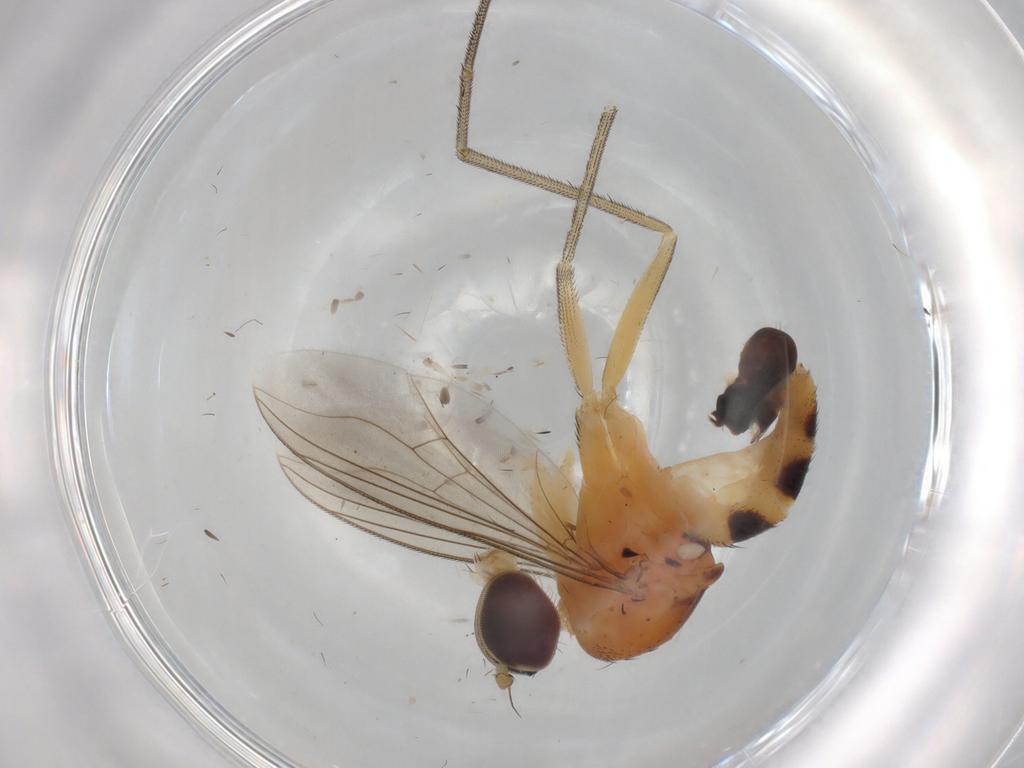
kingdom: Animalia
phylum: Arthropoda
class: Insecta
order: Diptera
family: Dolichopodidae
